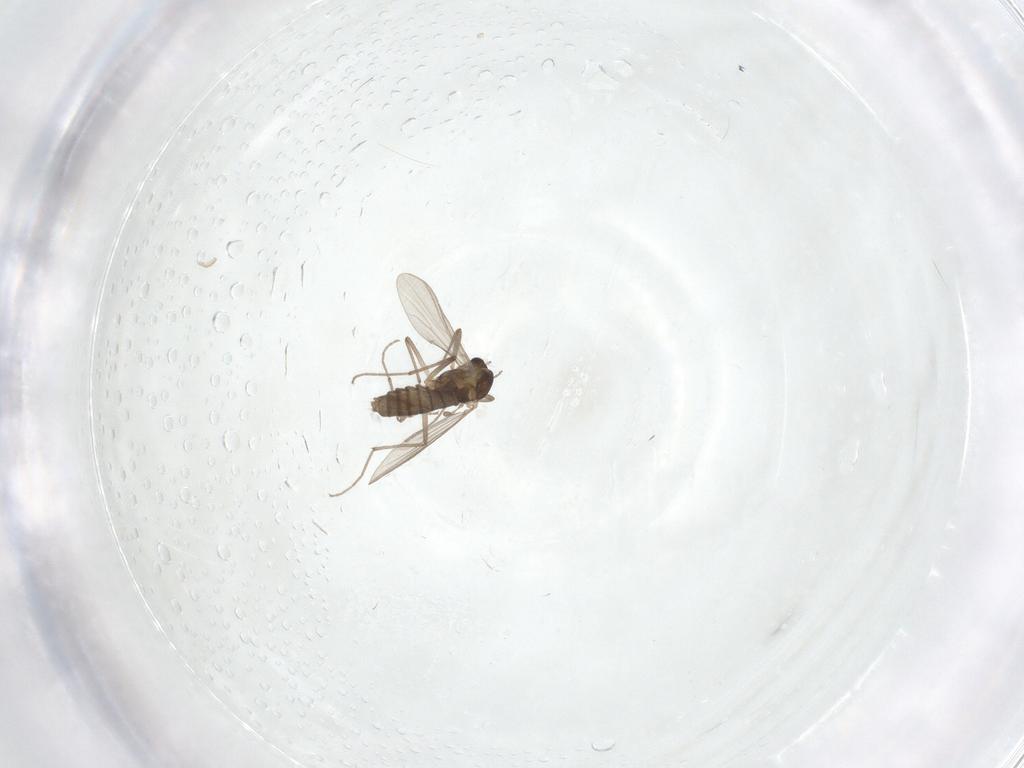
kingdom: Animalia
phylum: Arthropoda
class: Insecta
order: Diptera
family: Chironomidae
